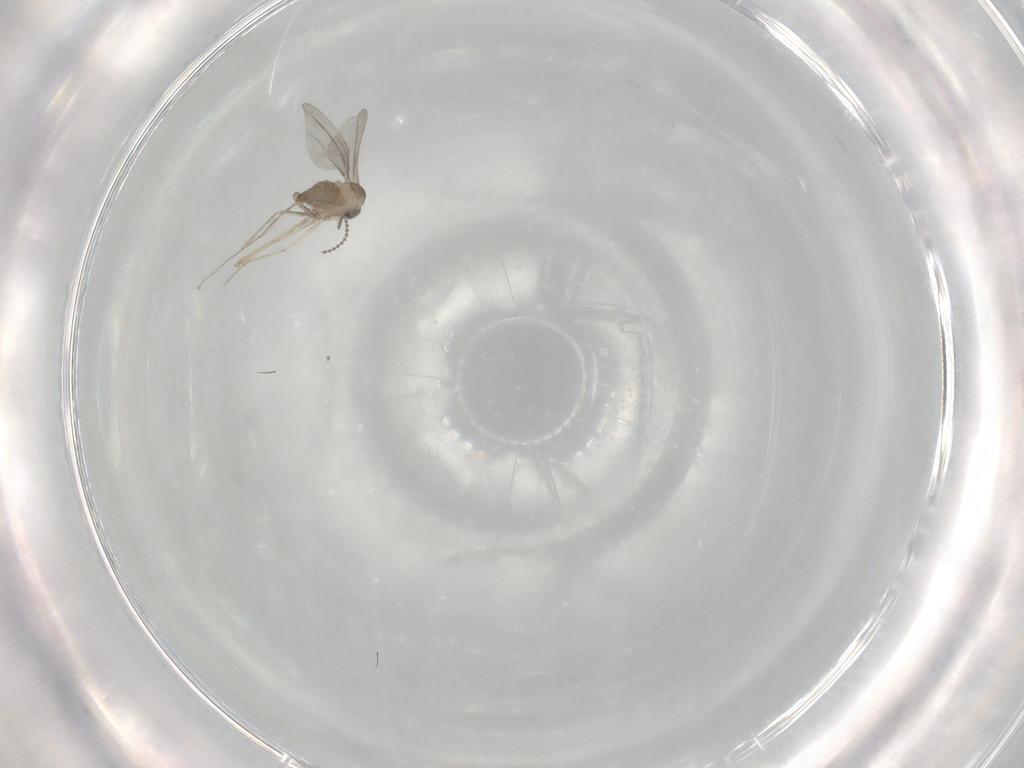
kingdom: Animalia
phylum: Arthropoda
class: Insecta
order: Diptera
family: Cecidomyiidae
